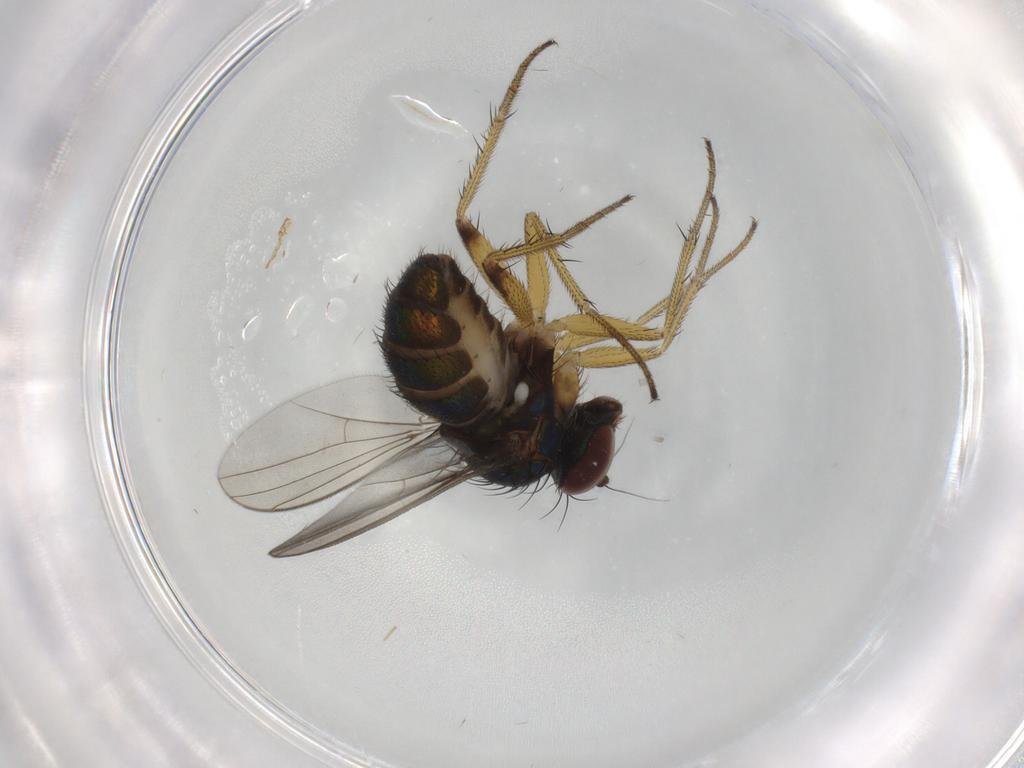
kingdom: Animalia
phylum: Arthropoda
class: Insecta
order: Diptera
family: Dolichopodidae
